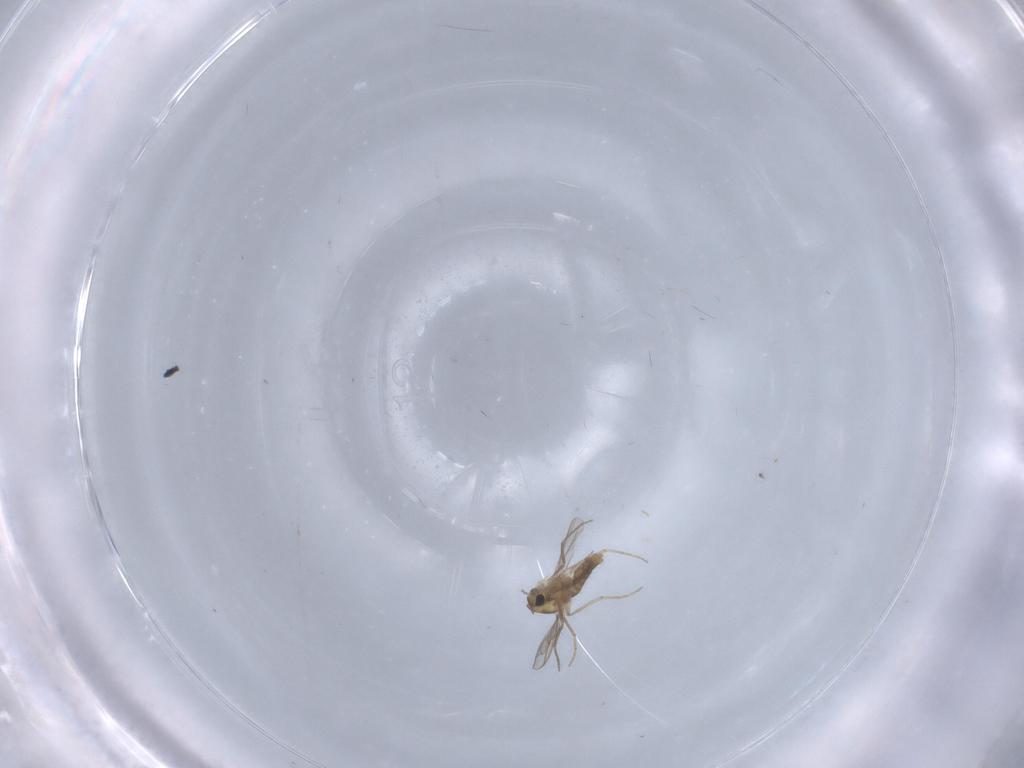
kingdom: Animalia
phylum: Arthropoda
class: Insecta
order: Diptera
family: Chironomidae
